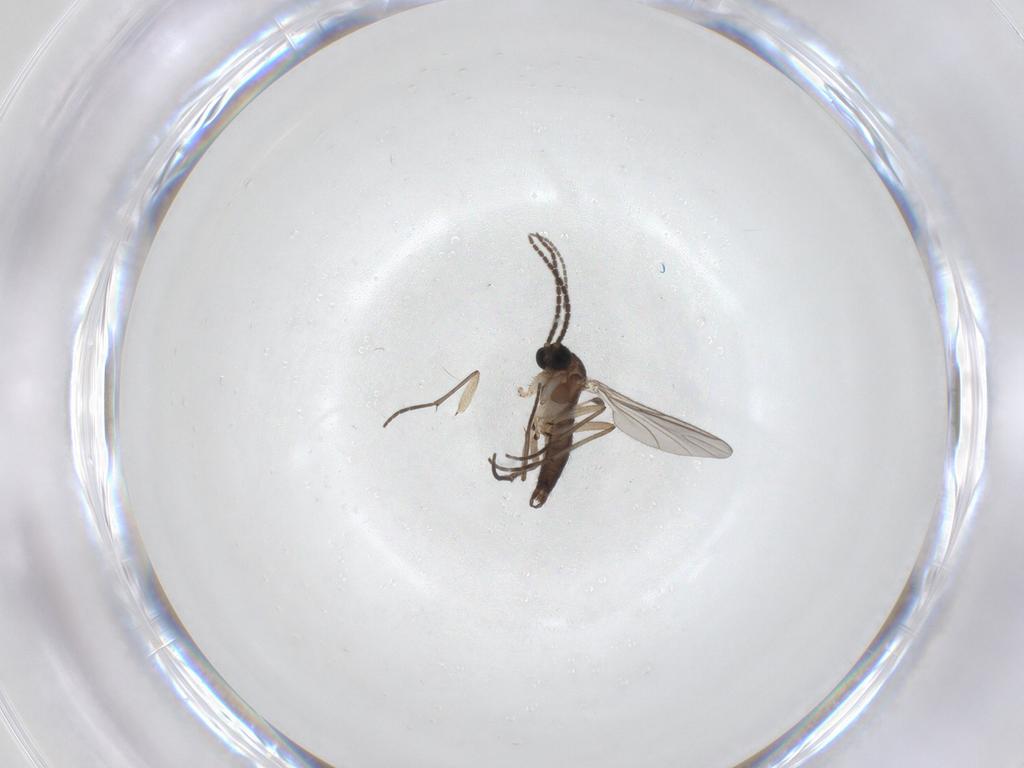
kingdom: Animalia
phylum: Arthropoda
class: Insecta
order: Diptera
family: Sciaridae
